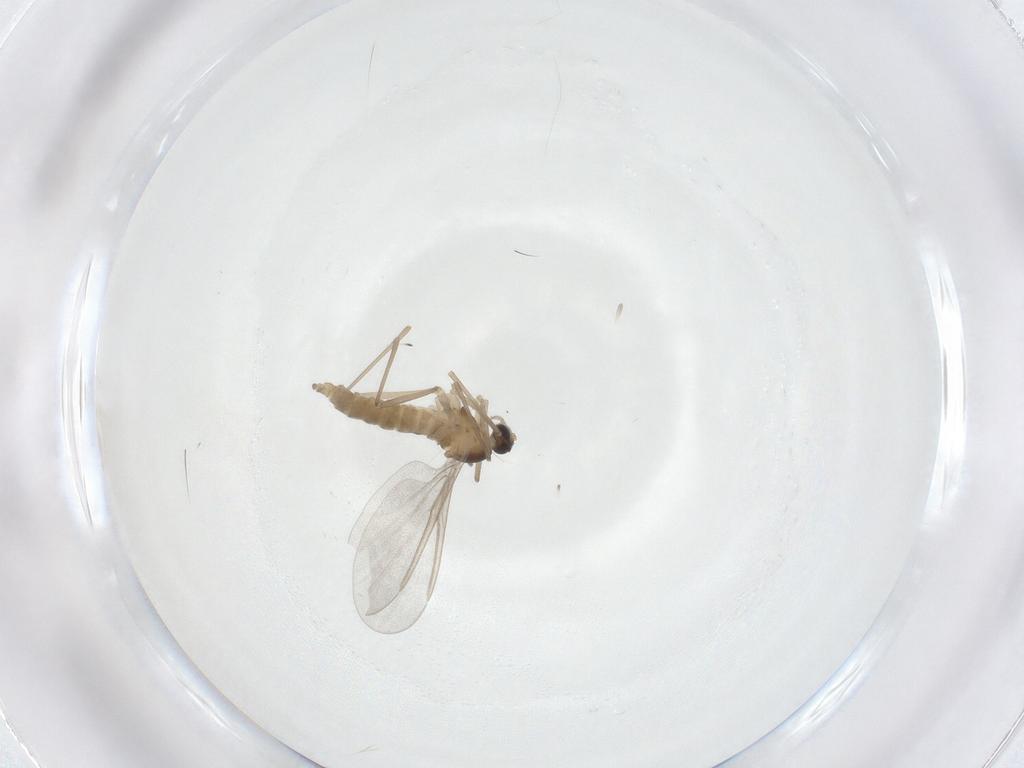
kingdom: Animalia
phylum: Arthropoda
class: Insecta
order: Diptera
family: Cecidomyiidae
